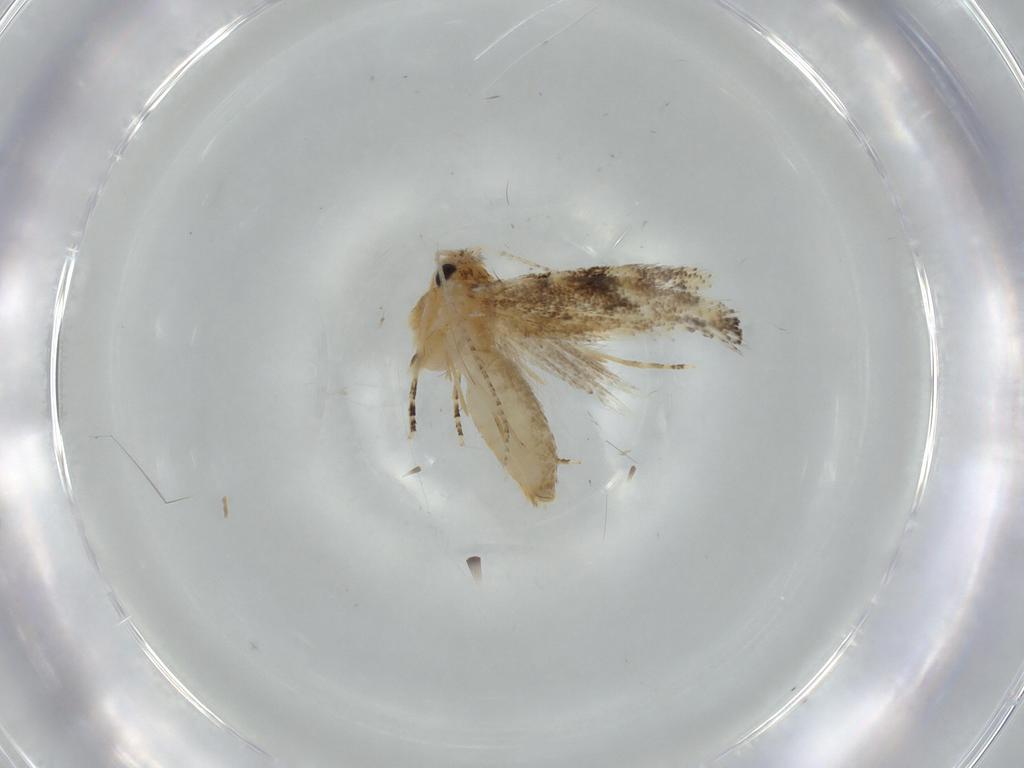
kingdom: Animalia
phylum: Arthropoda
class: Insecta
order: Lepidoptera
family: Bucculatricidae
